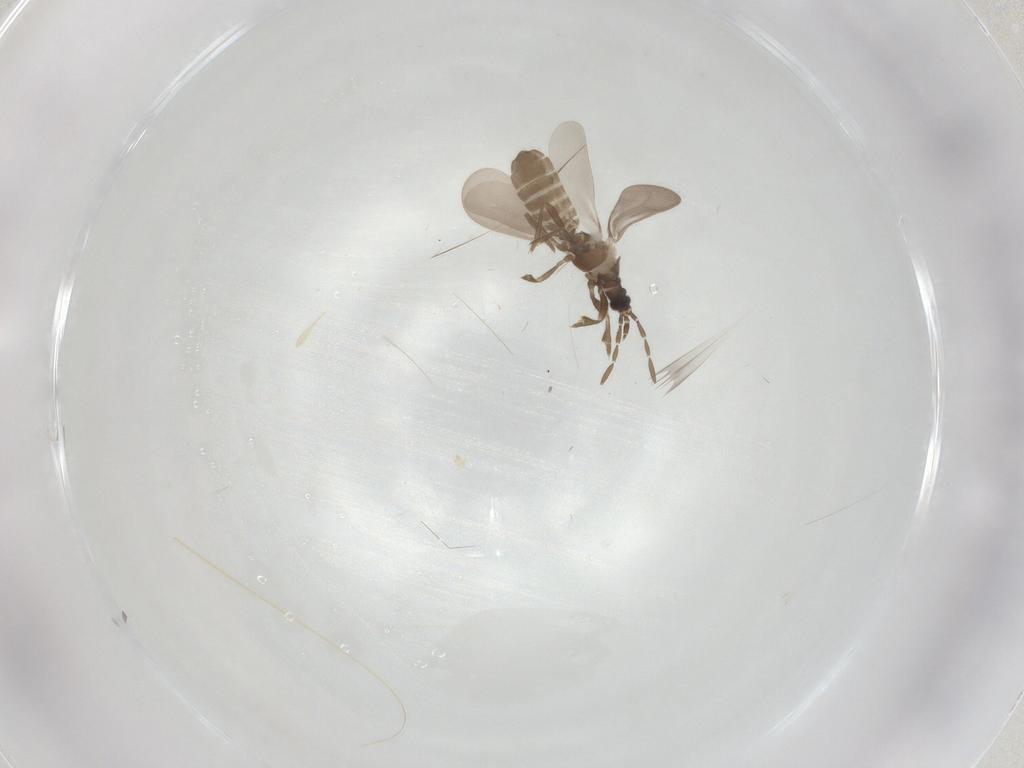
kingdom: Animalia
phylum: Arthropoda
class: Insecta
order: Hemiptera
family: Enicocephalidae
